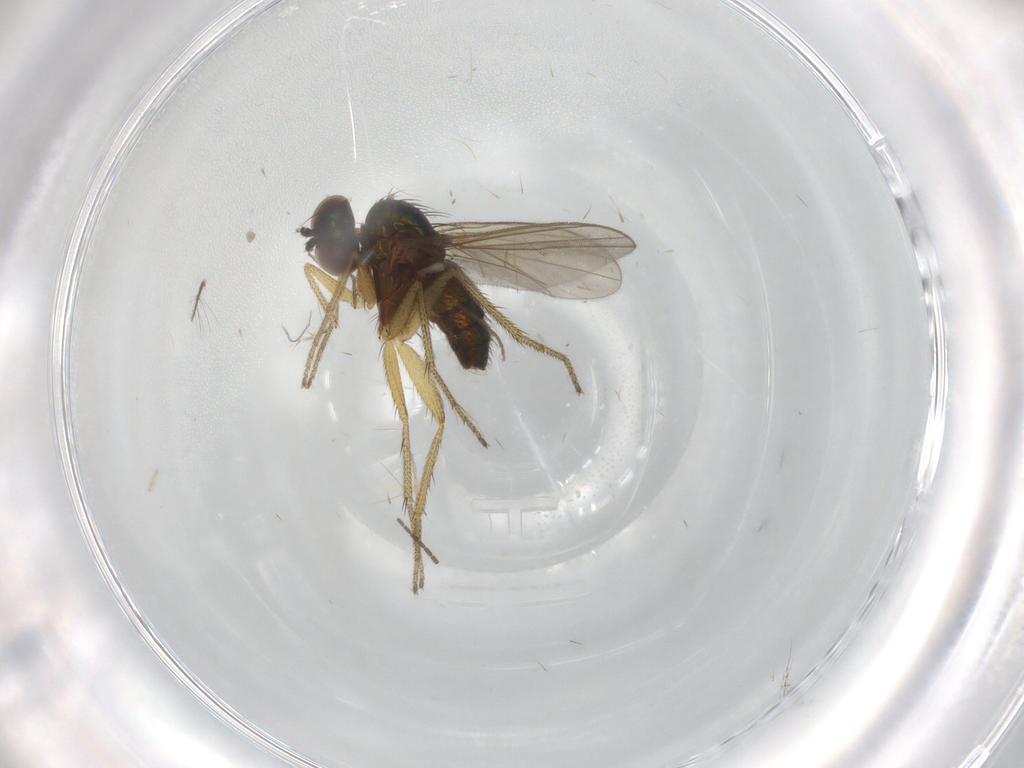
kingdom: Animalia
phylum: Arthropoda
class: Insecta
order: Diptera
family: Sciaridae
